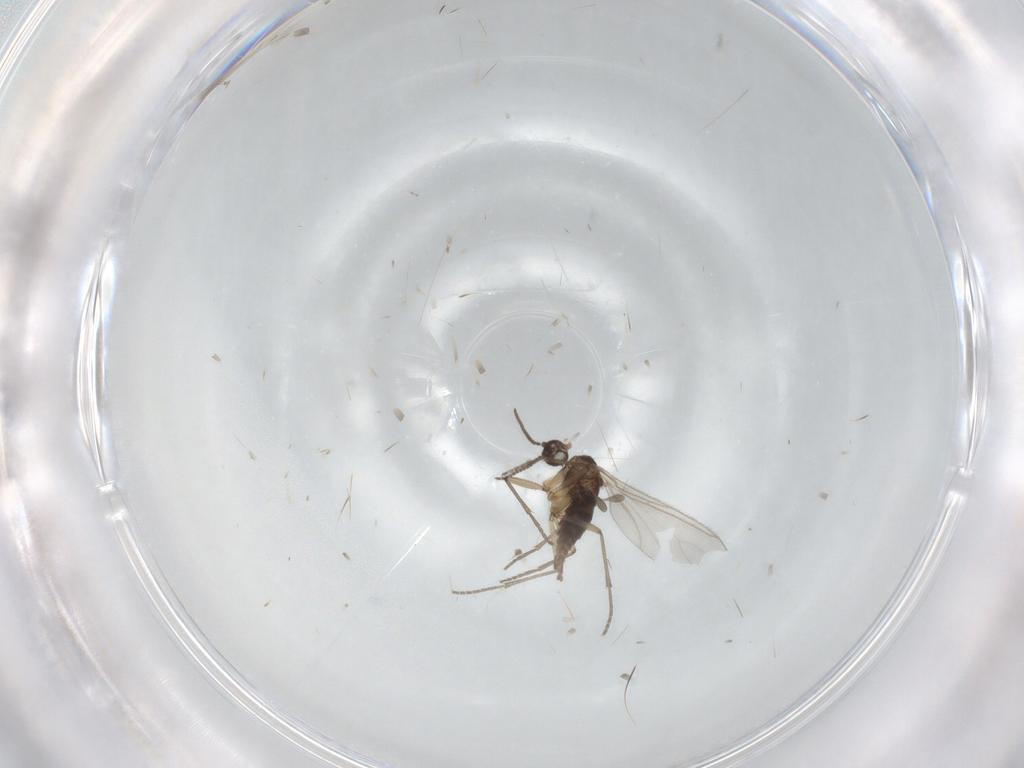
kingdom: Animalia
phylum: Arthropoda
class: Insecta
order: Diptera
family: Sciaridae
